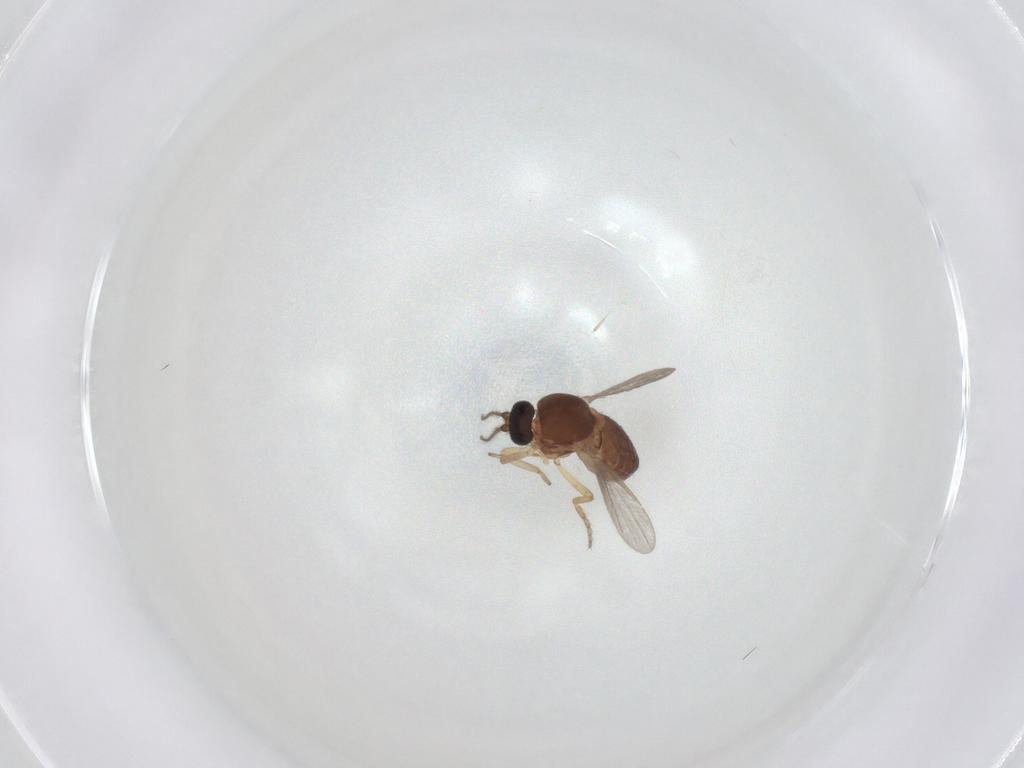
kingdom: Animalia
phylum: Arthropoda
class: Insecta
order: Diptera
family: Ceratopogonidae
